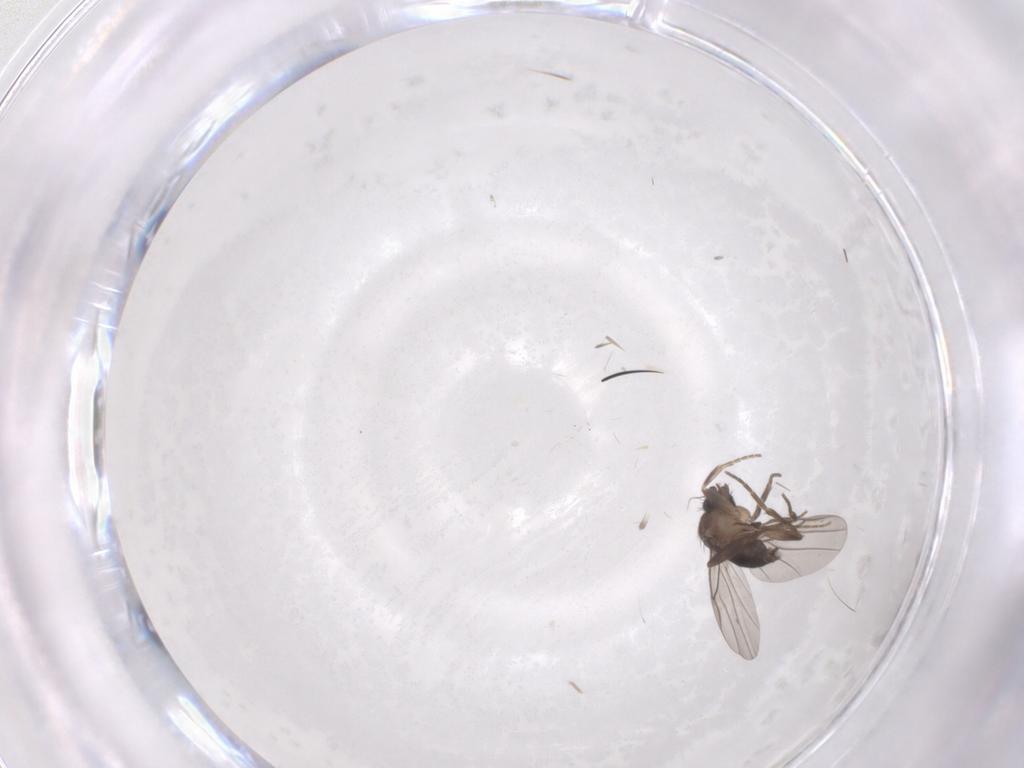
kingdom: Animalia
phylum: Arthropoda
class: Insecta
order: Diptera
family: Phoridae
